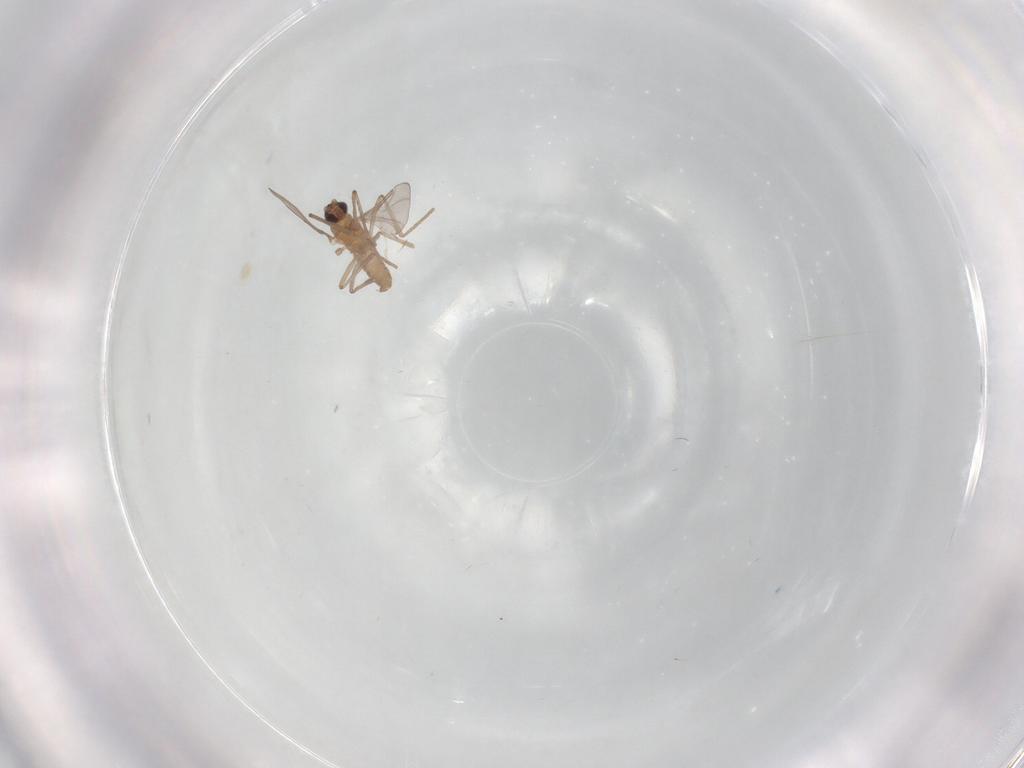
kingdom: Animalia
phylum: Arthropoda
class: Insecta
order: Diptera
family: Cecidomyiidae
